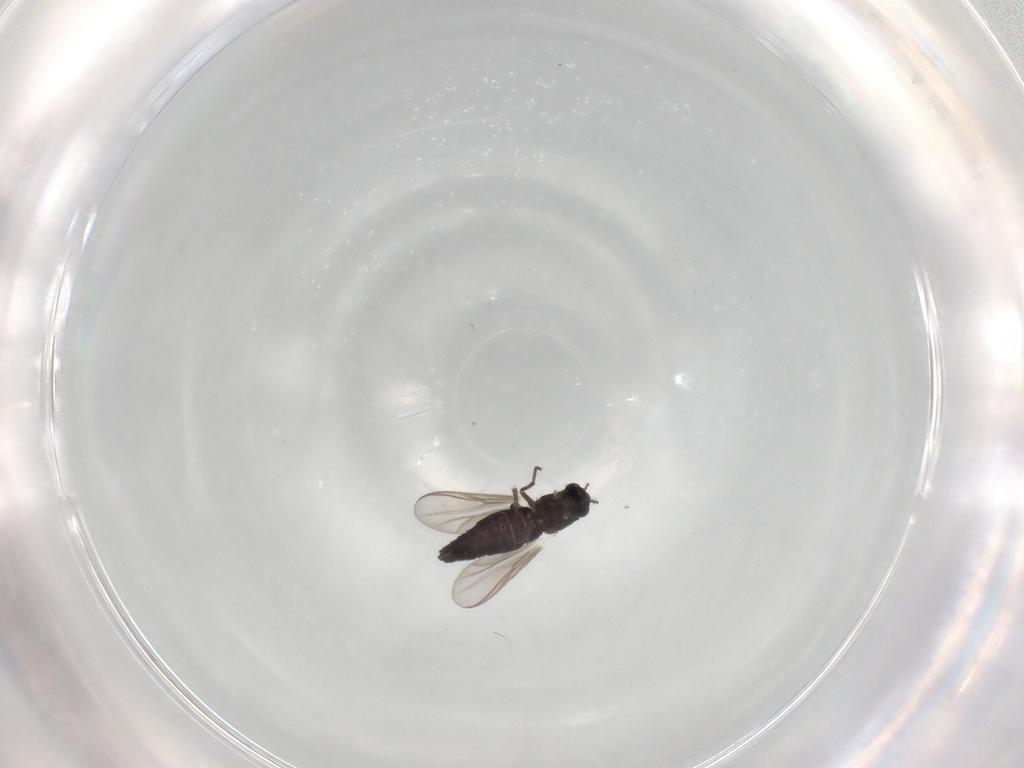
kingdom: Animalia
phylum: Arthropoda
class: Insecta
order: Diptera
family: Chironomidae
